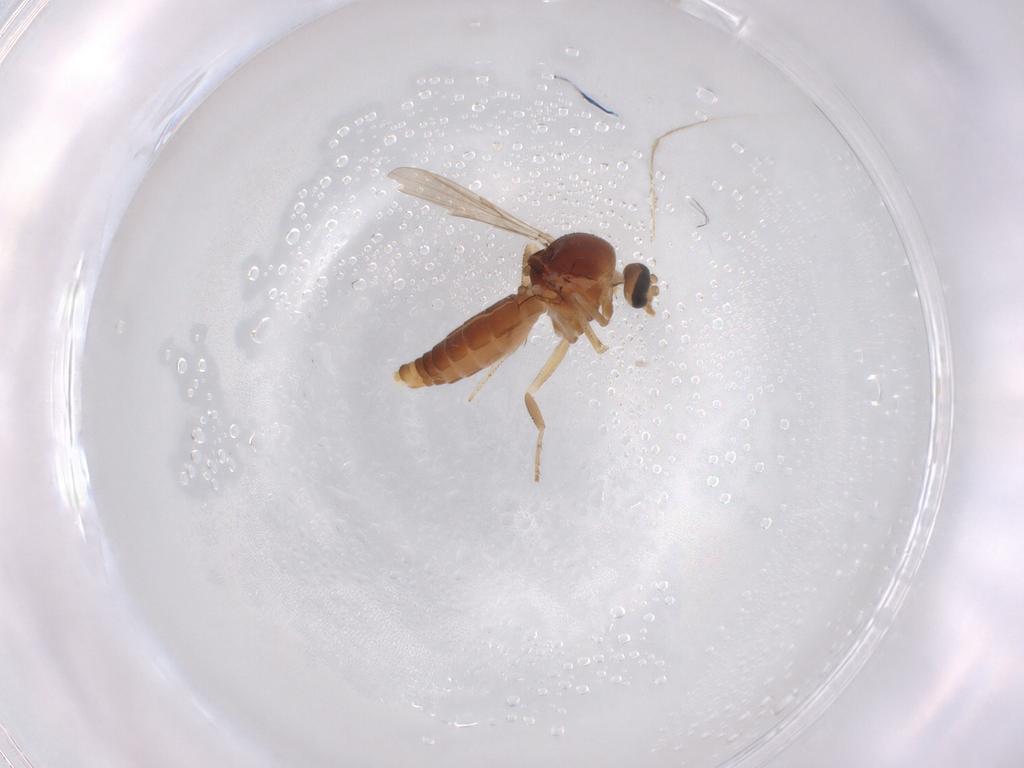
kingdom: Animalia
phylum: Arthropoda
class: Insecta
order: Diptera
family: Ceratopogonidae
